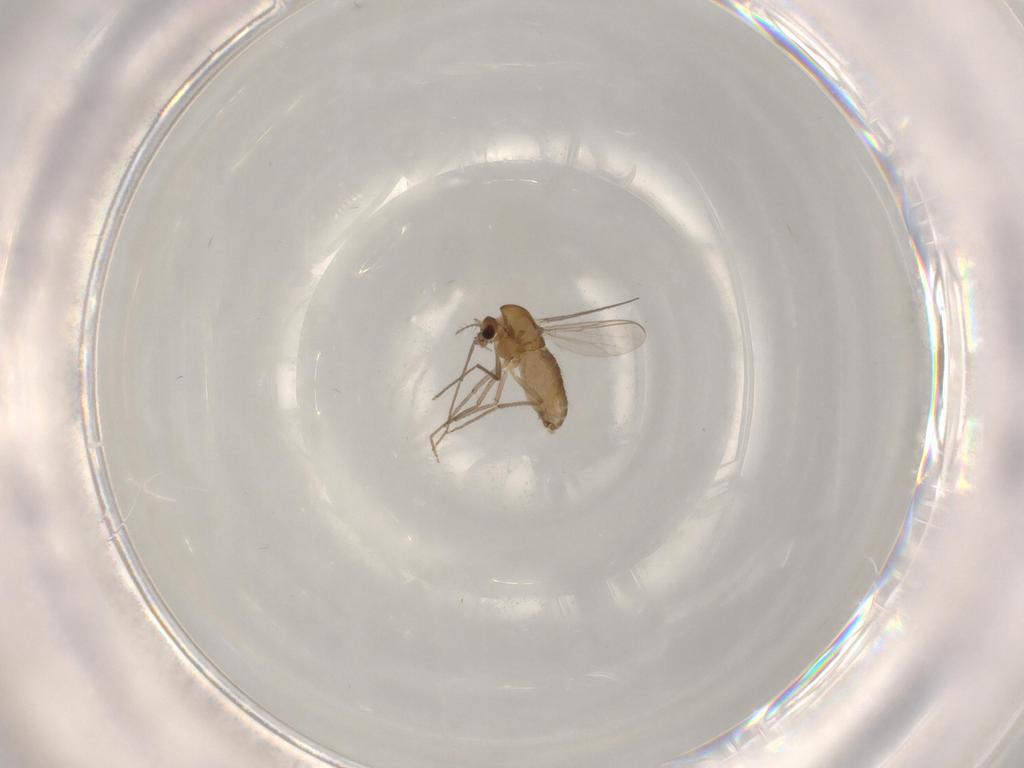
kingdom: Animalia
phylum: Arthropoda
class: Insecta
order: Diptera
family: Chironomidae
